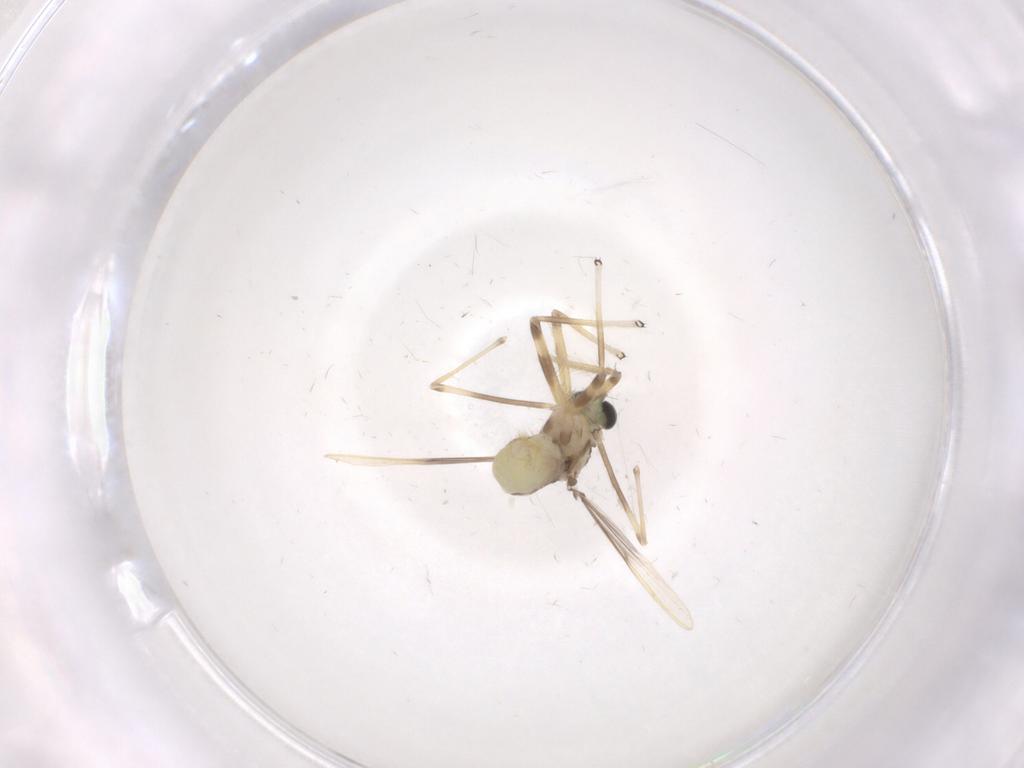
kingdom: Animalia
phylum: Arthropoda
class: Insecta
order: Diptera
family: Chironomidae
